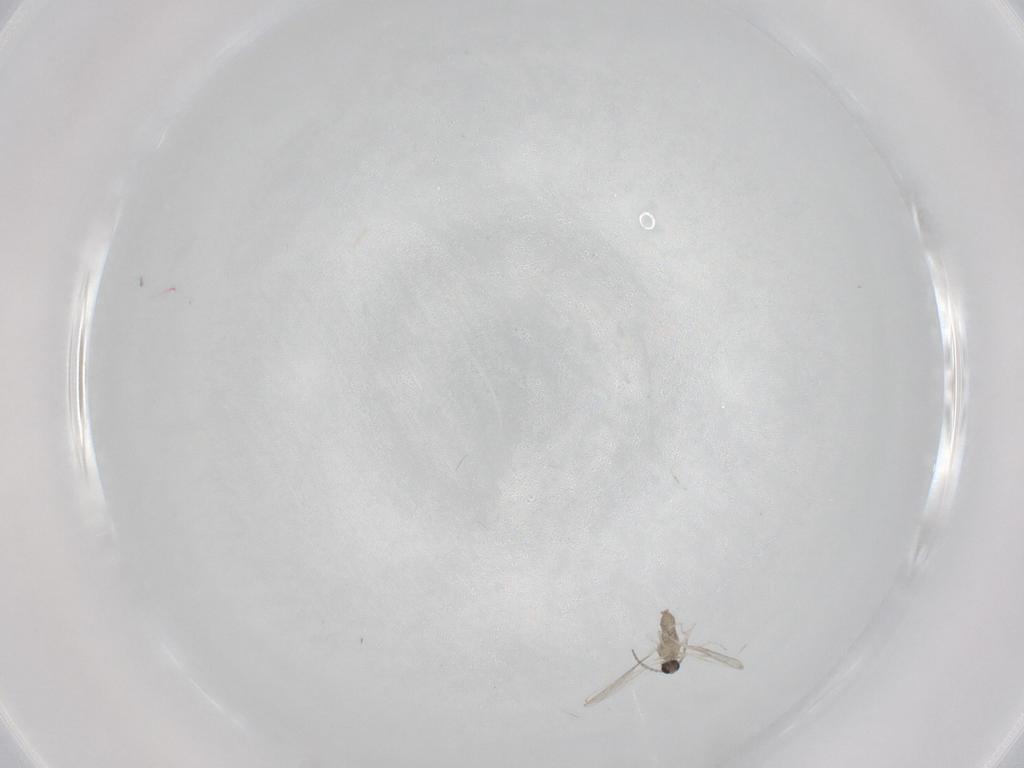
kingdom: Animalia
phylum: Arthropoda
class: Insecta
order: Diptera
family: Cecidomyiidae
